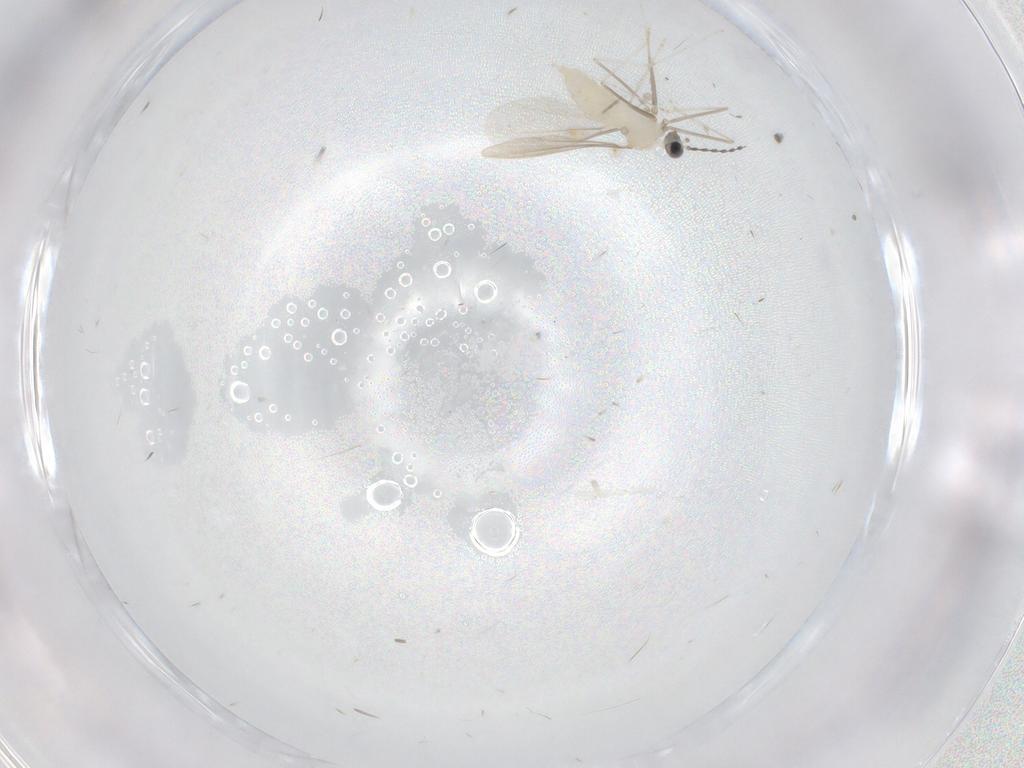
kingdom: Animalia
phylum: Arthropoda
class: Insecta
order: Diptera
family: Cecidomyiidae
